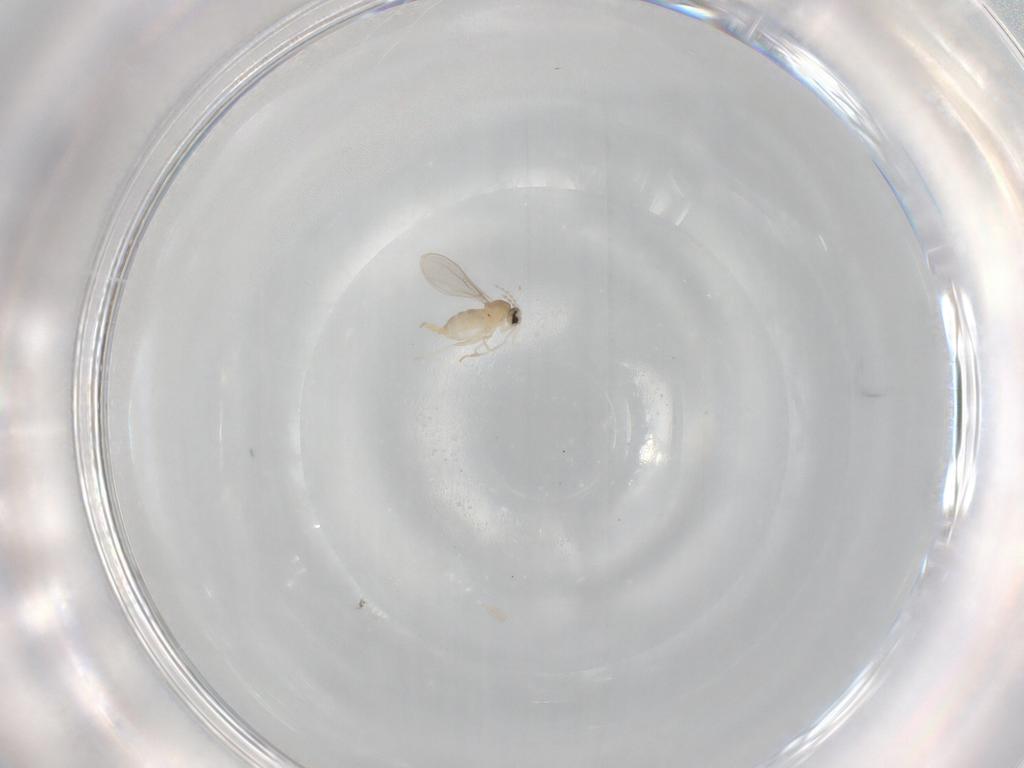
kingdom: Animalia
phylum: Arthropoda
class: Insecta
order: Diptera
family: Cecidomyiidae
